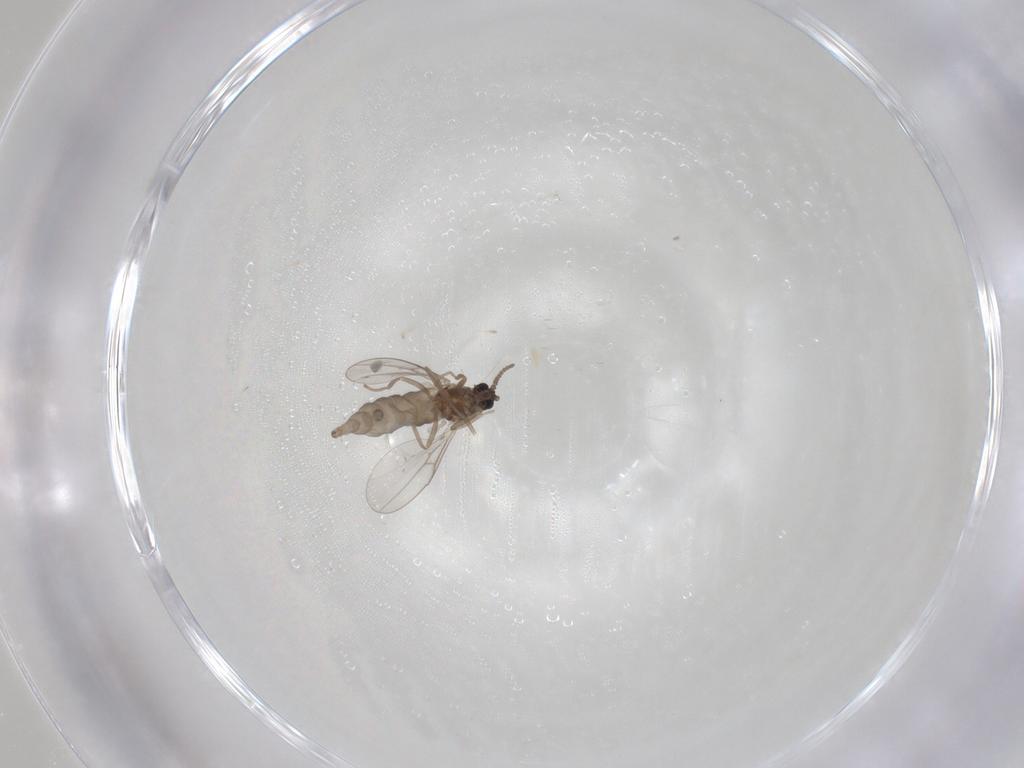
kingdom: Animalia
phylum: Arthropoda
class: Insecta
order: Diptera
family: Cecidomyiidae
